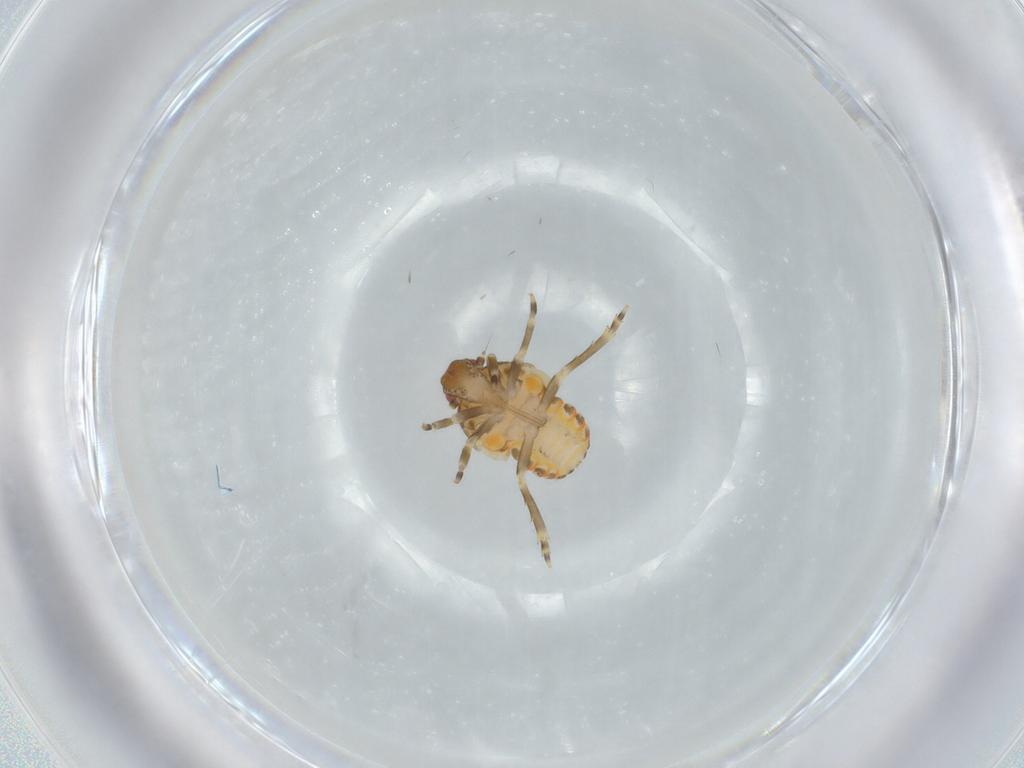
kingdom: Animalia
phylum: Arthropoda
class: Insecta
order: Hemiptera
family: Flatidae
